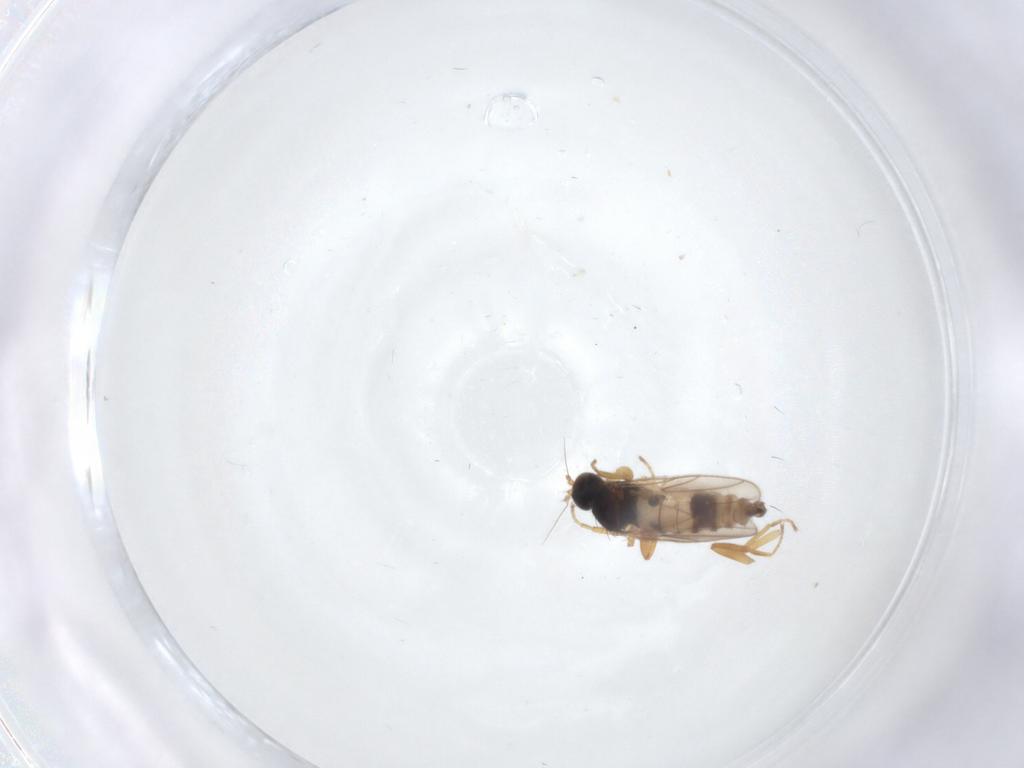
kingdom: Animalia
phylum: Arthropoda
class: Insecta
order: Diptera
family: Hybotidae
